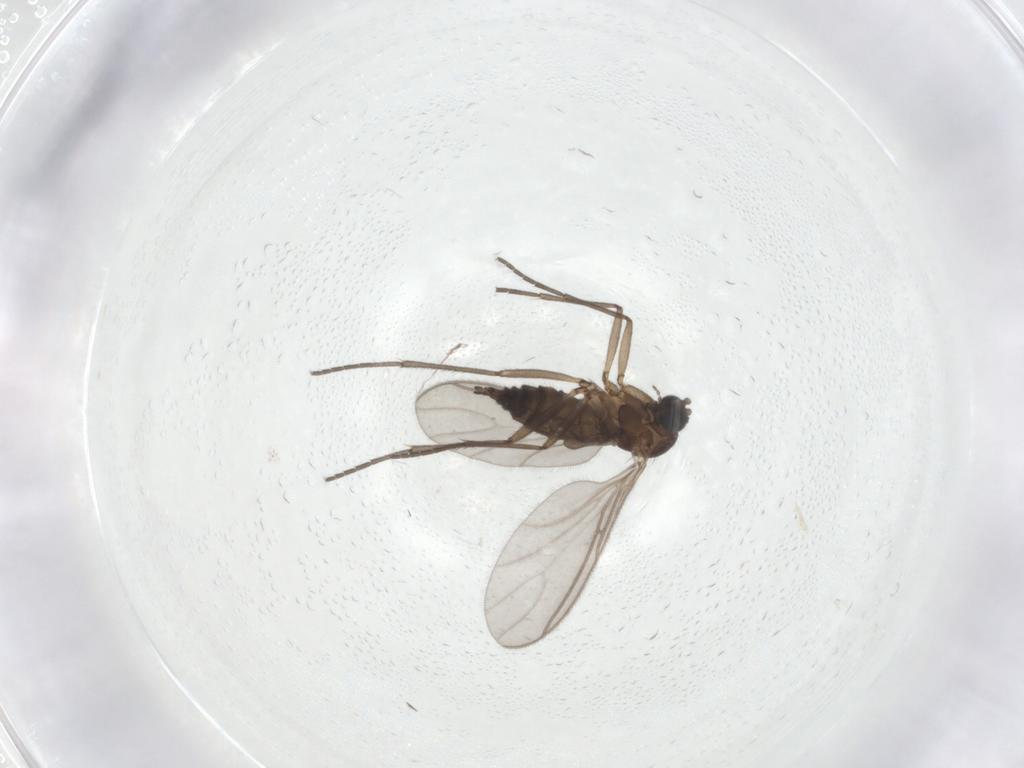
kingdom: Animalia
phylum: Arthropoda
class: Insecta
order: Diptera
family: Sciaridae
